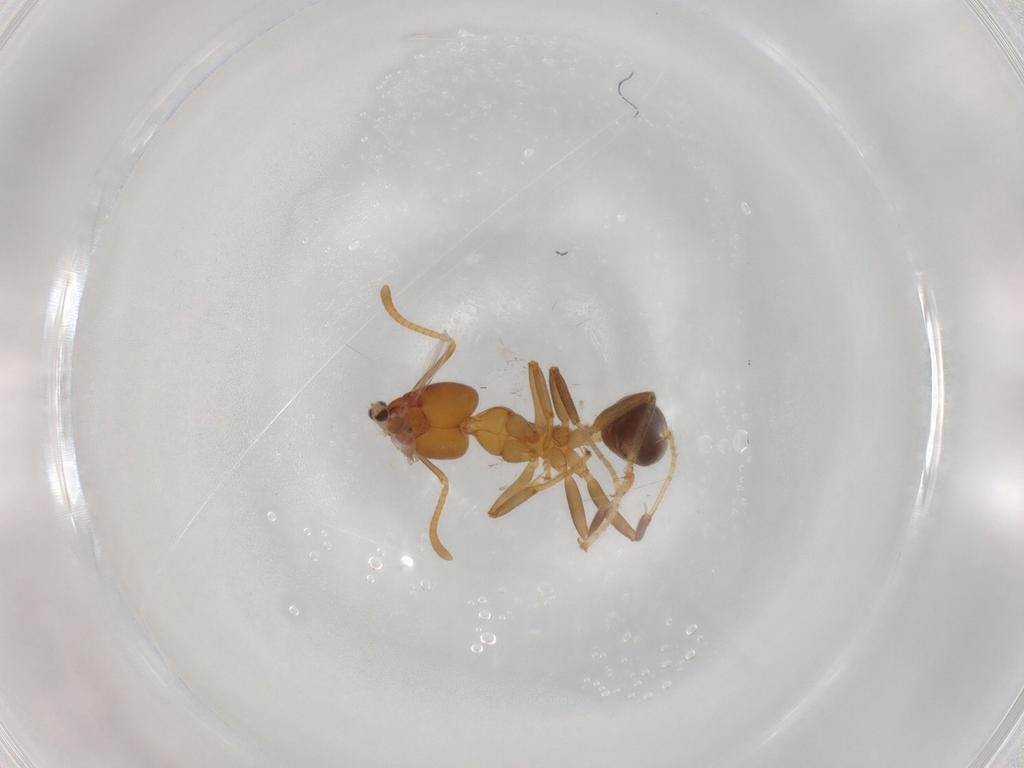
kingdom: Animalia
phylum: Arthropoda
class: Insecta
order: Hymenoptera
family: Formicidae
